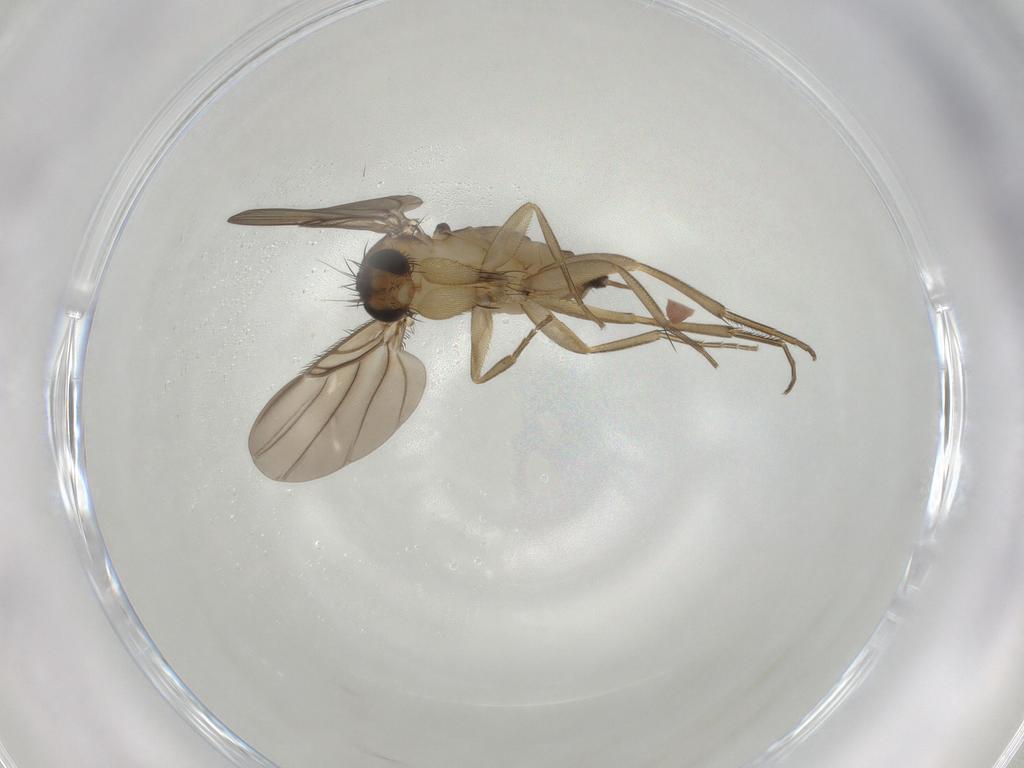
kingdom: Animalia
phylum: Arthropoda
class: Insecta
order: Diptera
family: Phoridae
